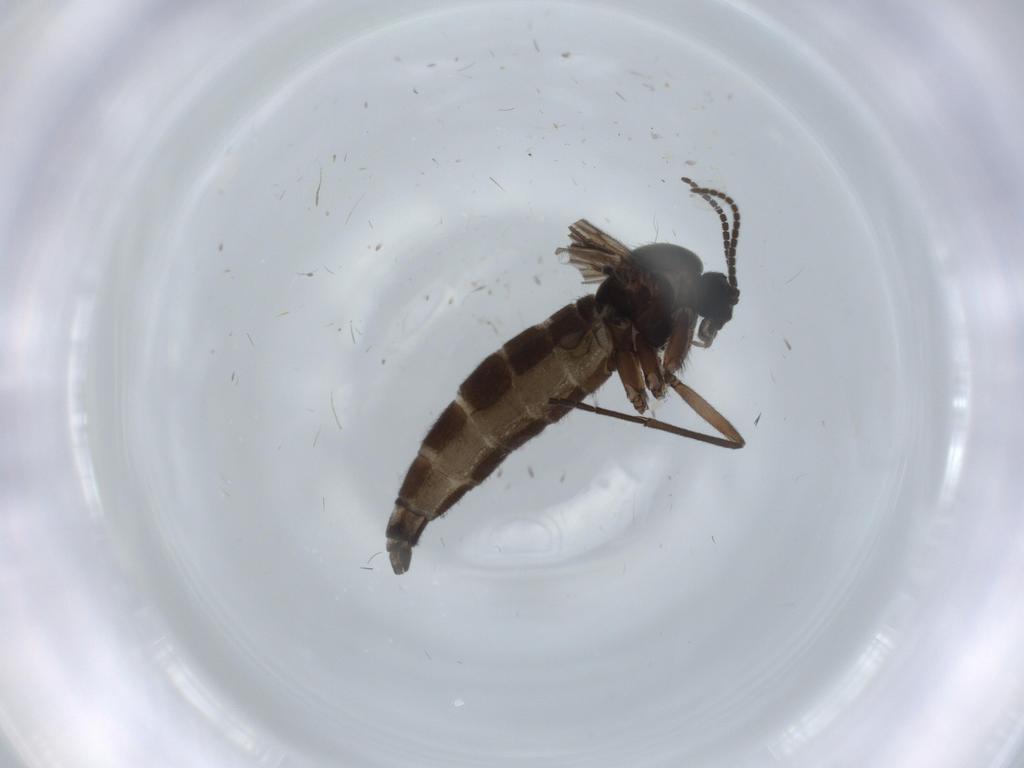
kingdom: Animalia
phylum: Arthropoda
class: Insecta
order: Diptera
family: Sciaridae
